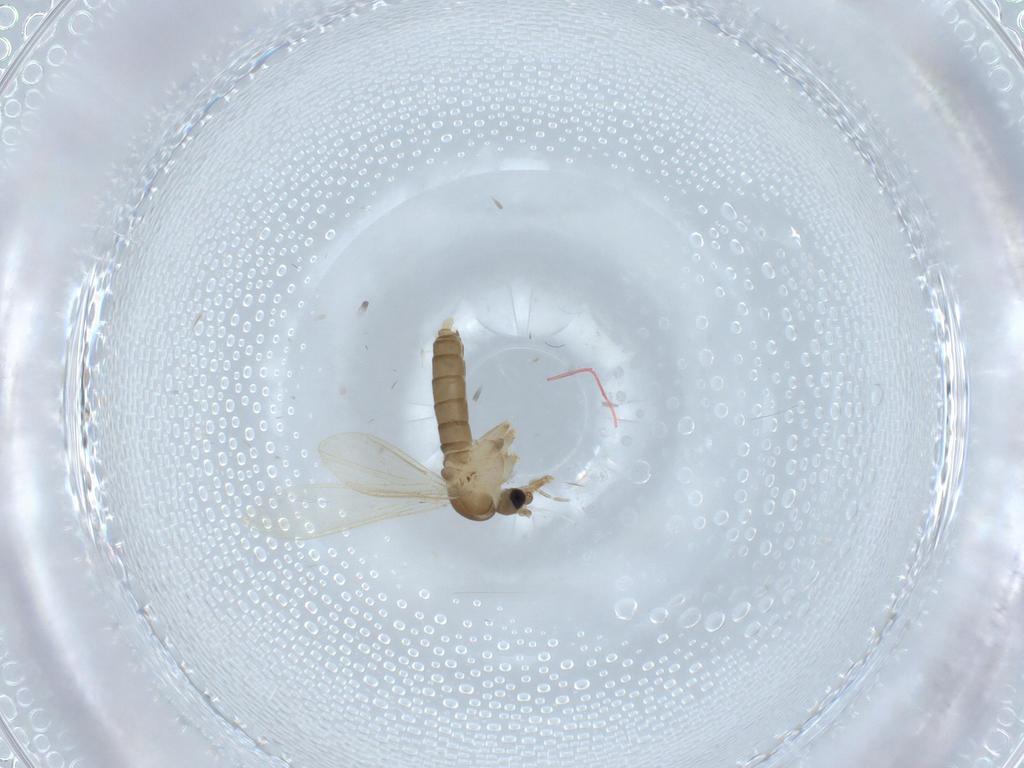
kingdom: Animalia
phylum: Arthropoda
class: Insecta
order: Diptera
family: Psychodidae
